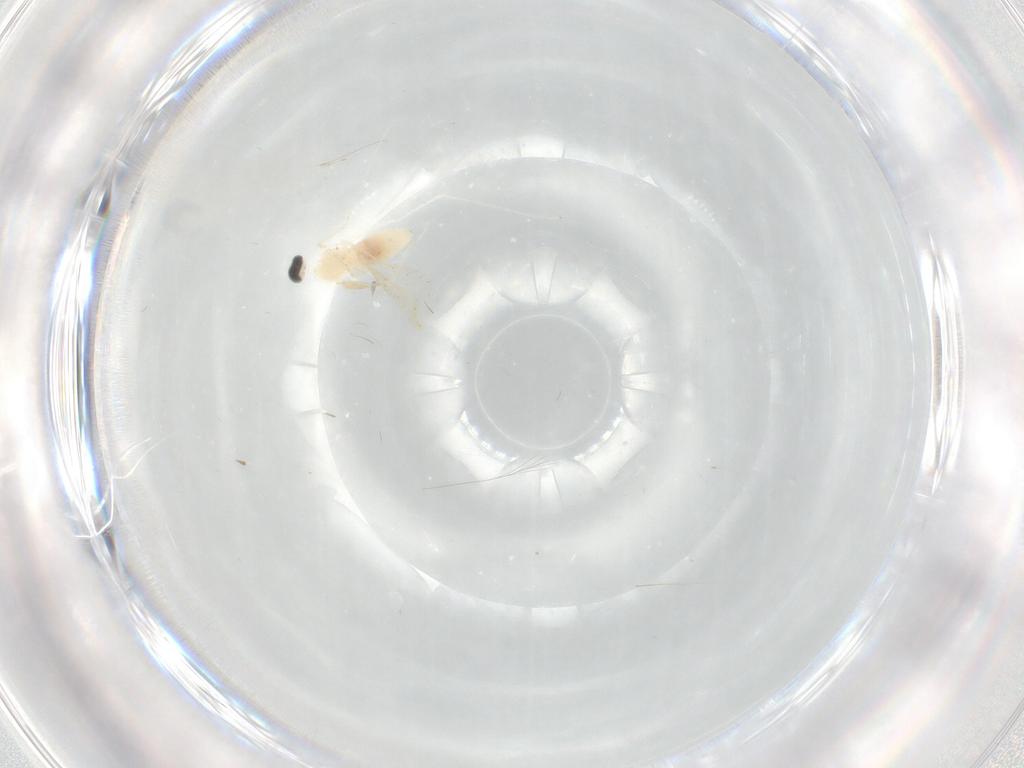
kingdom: Animalia
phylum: Arthropoda
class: Insecta
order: Diptera
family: Cecidomyiidae
